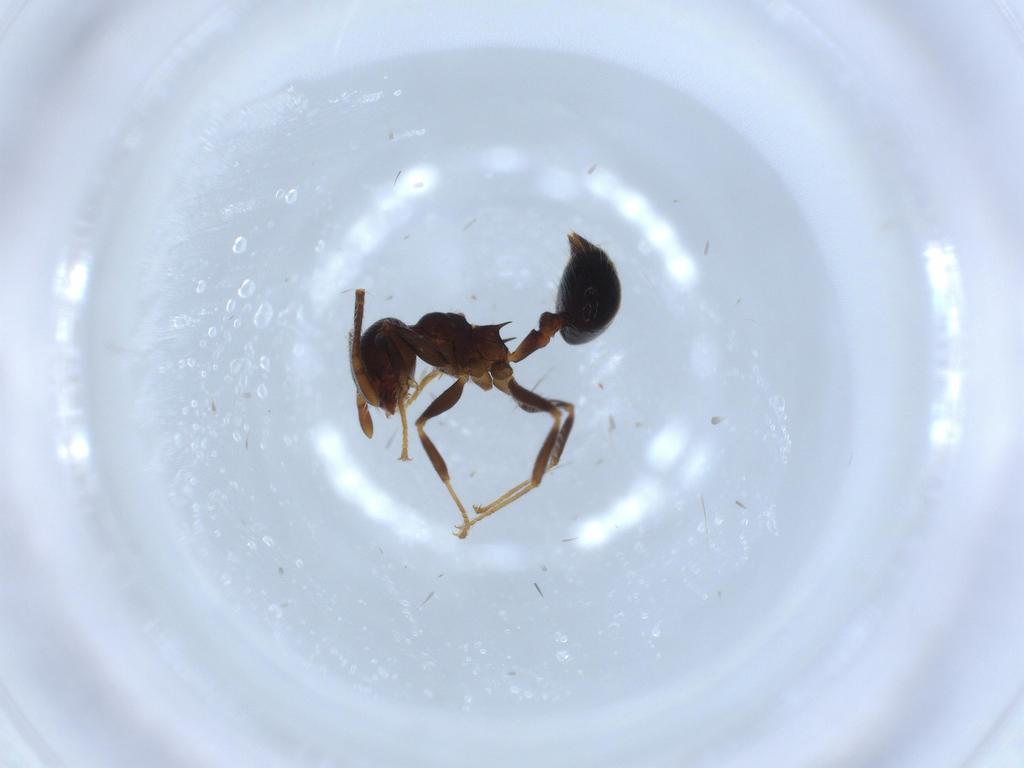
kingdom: Animalia
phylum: Arthropoda
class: Insecta
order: Hymenoptera
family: Formicidae
